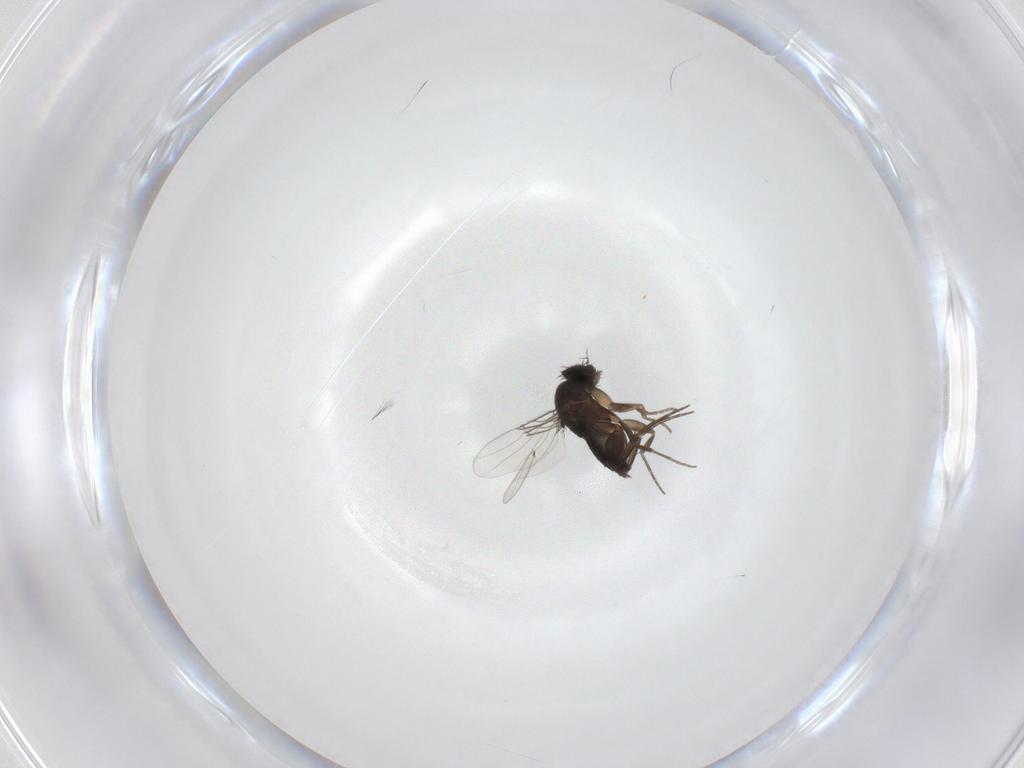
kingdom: Animalia
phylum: Arthropoda
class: Insecta
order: Diptera
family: Phoridae
